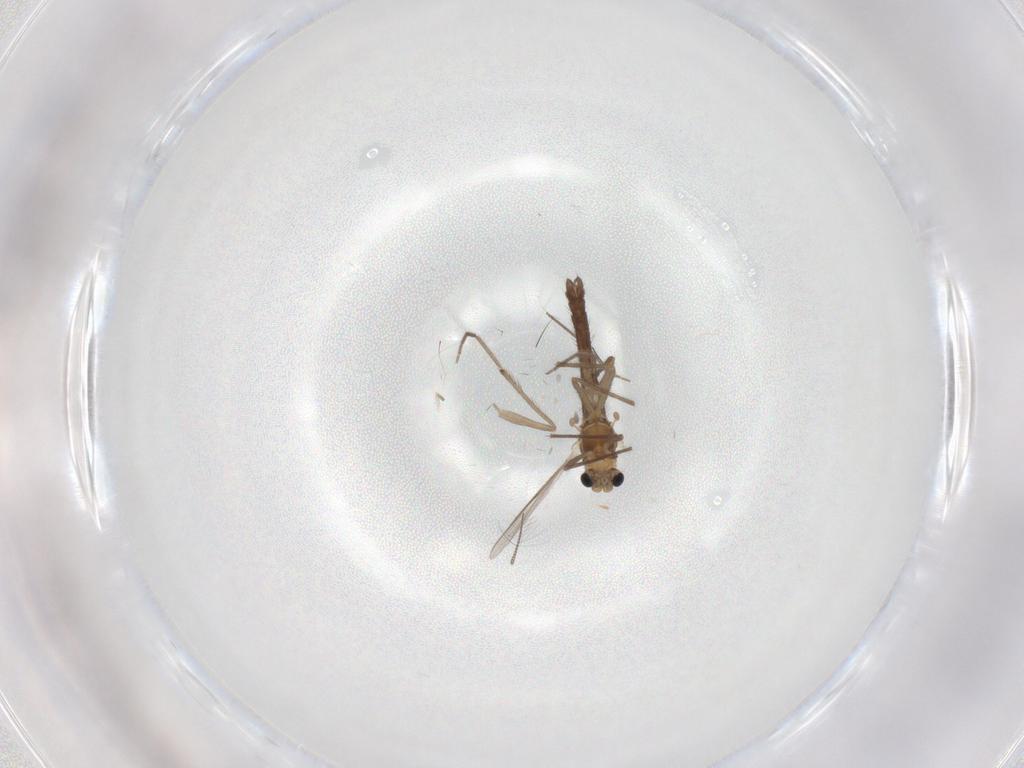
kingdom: Animalia
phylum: Arthropoda
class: Insecta
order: Diptera
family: Chironomidae
